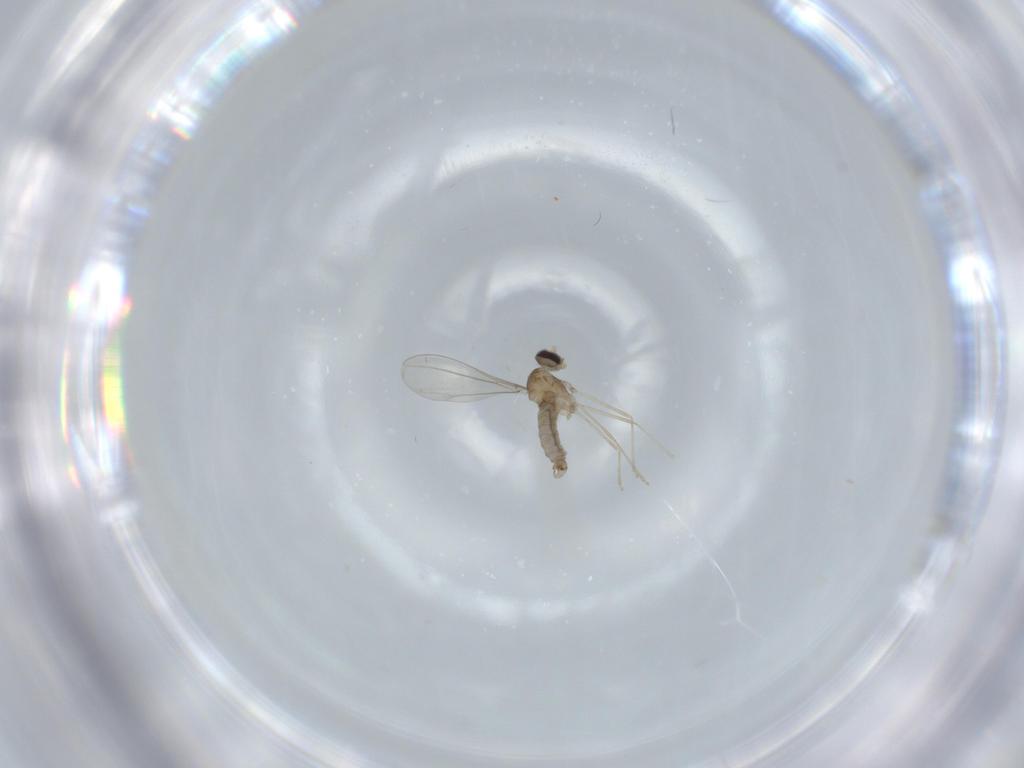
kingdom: Animalia
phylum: Arthropoda
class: Insecta
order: Diptera
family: Cecidomyiidae
